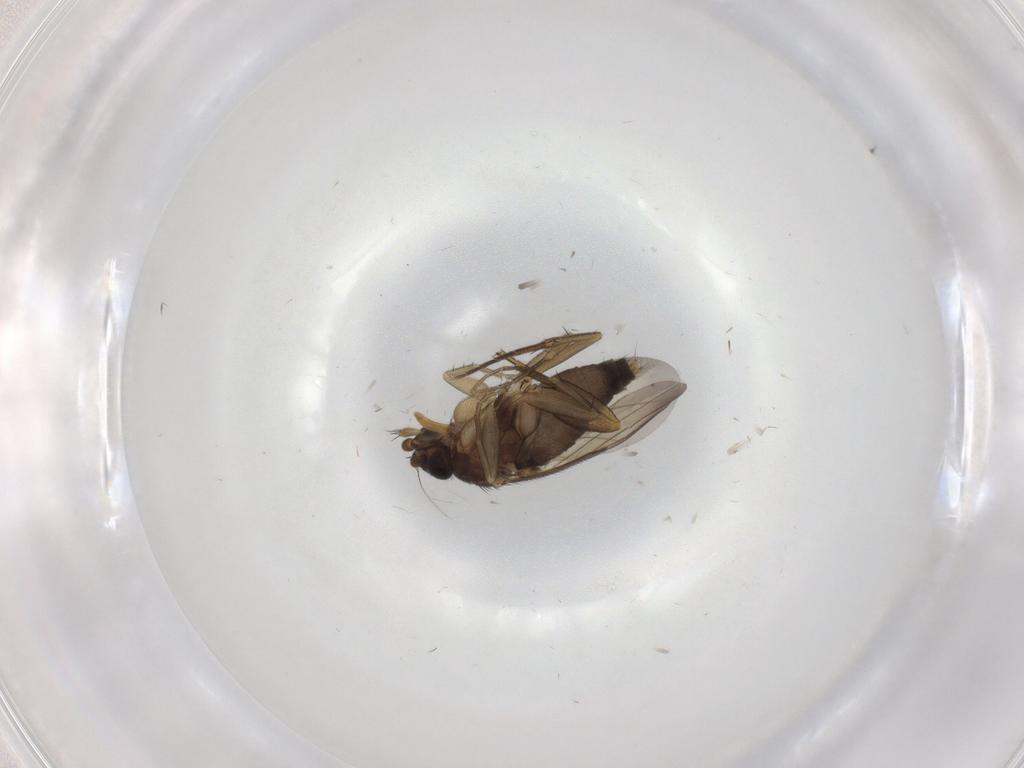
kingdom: Animalia
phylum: Arthropoda
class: Insecta
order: Diptera
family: Phoridae
